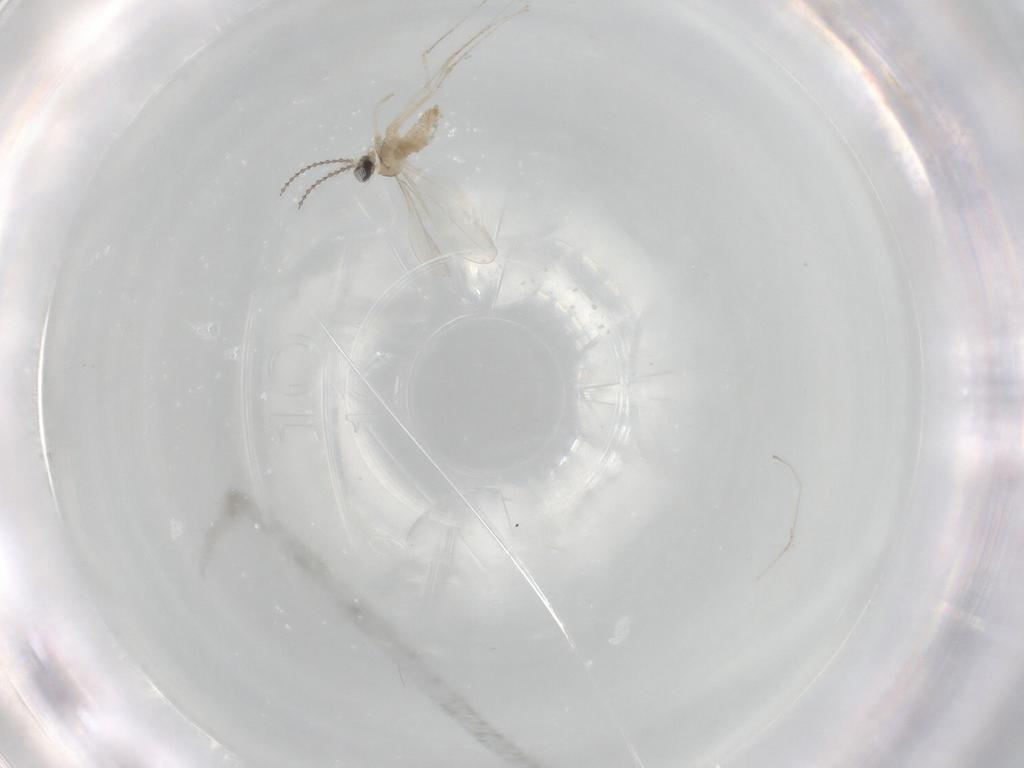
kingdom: Animalia
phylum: Arthropoda
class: Insecta
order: Diptera
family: Cecidomyiidae
